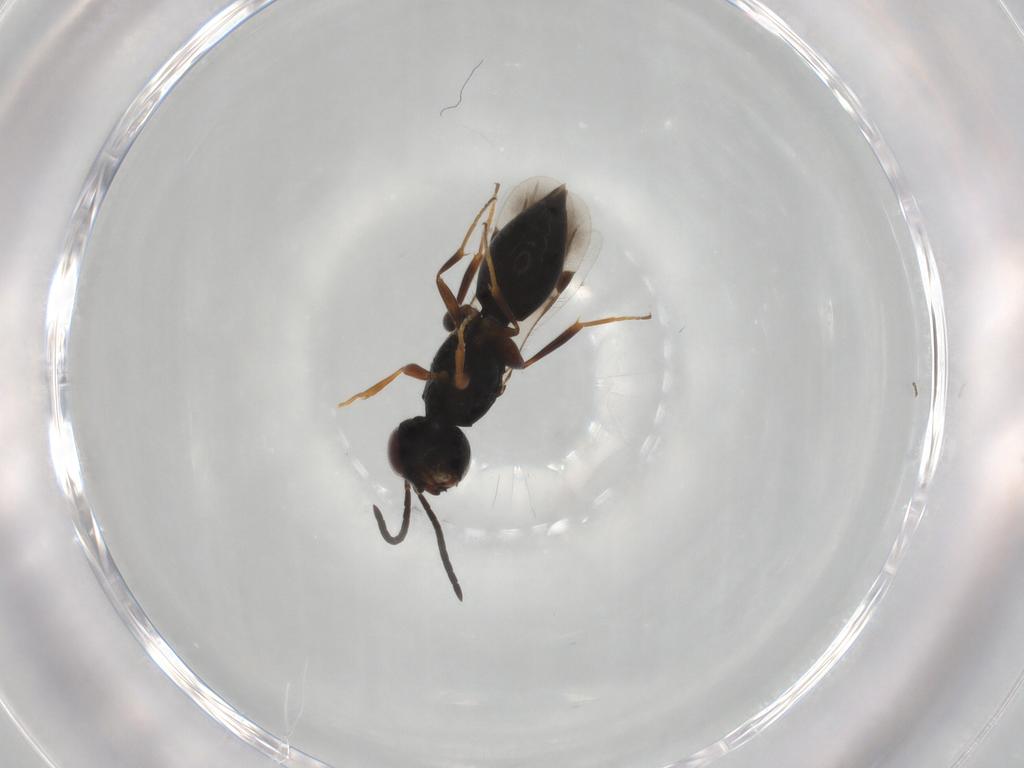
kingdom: Animalia
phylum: Arthropoda
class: Insecta
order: Hymenoptera
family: Megaspilidae
